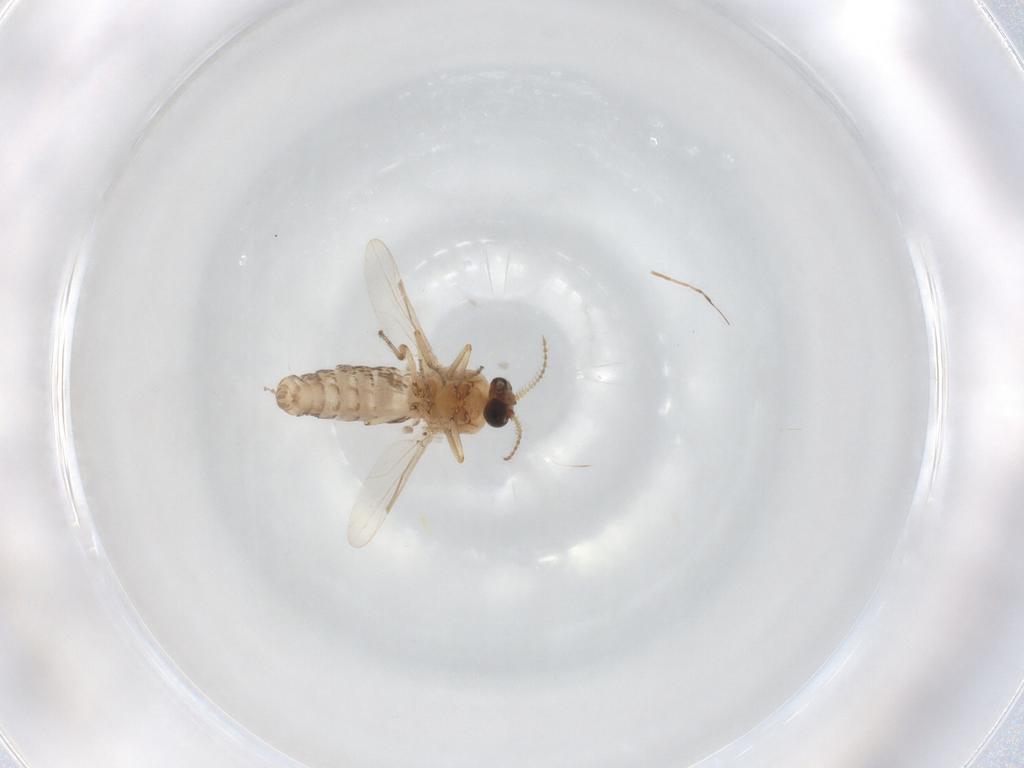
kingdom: Animalia
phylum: Arthropoda
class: Insecta
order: Diptera
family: Ceratopogonidae
